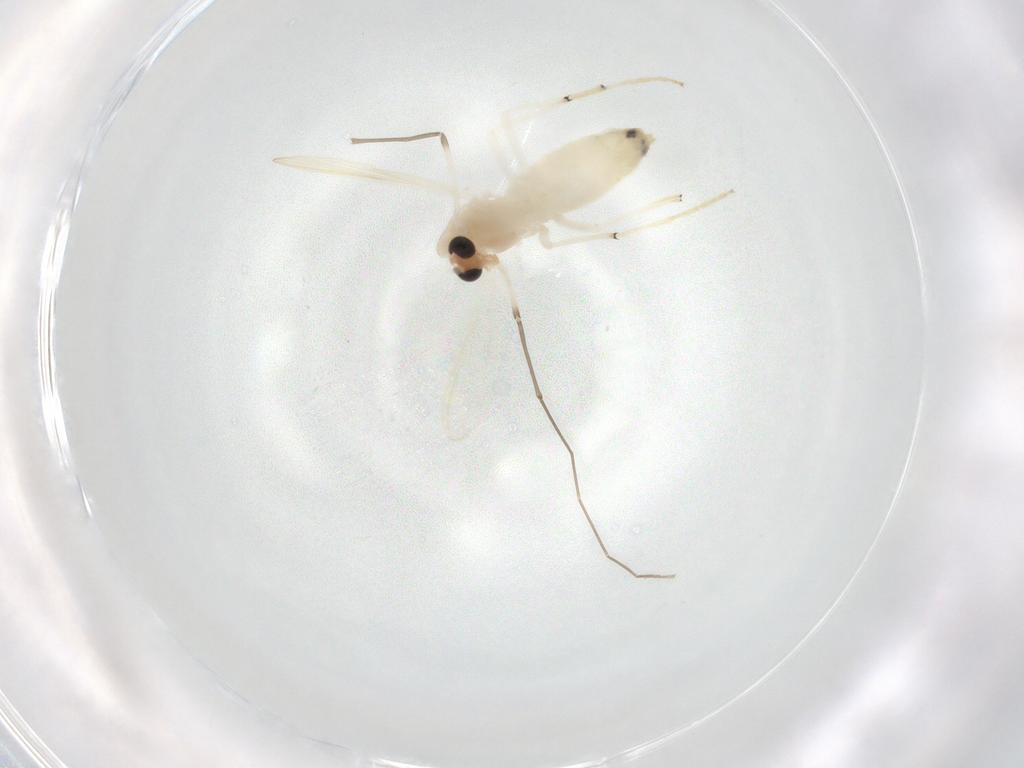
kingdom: Animalia
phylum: Arthropoda
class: Insecta
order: Diptera
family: Chironomidae
